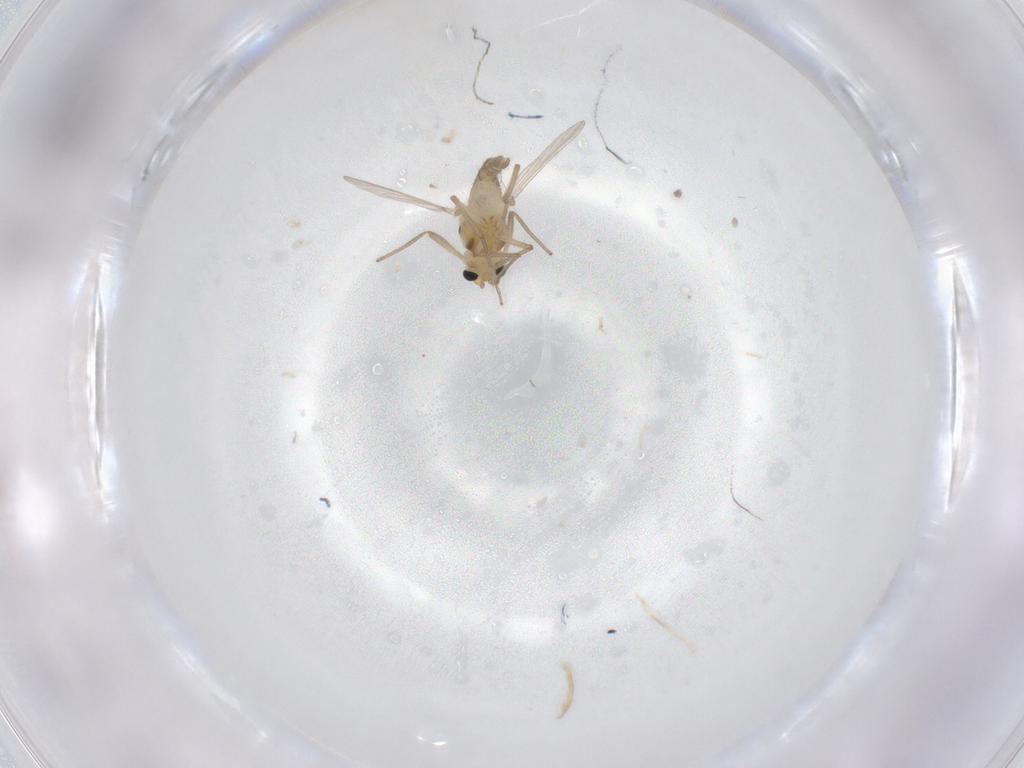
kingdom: Animalia
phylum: Arthropoda
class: Insecta
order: Diptera
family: Chironomidae
